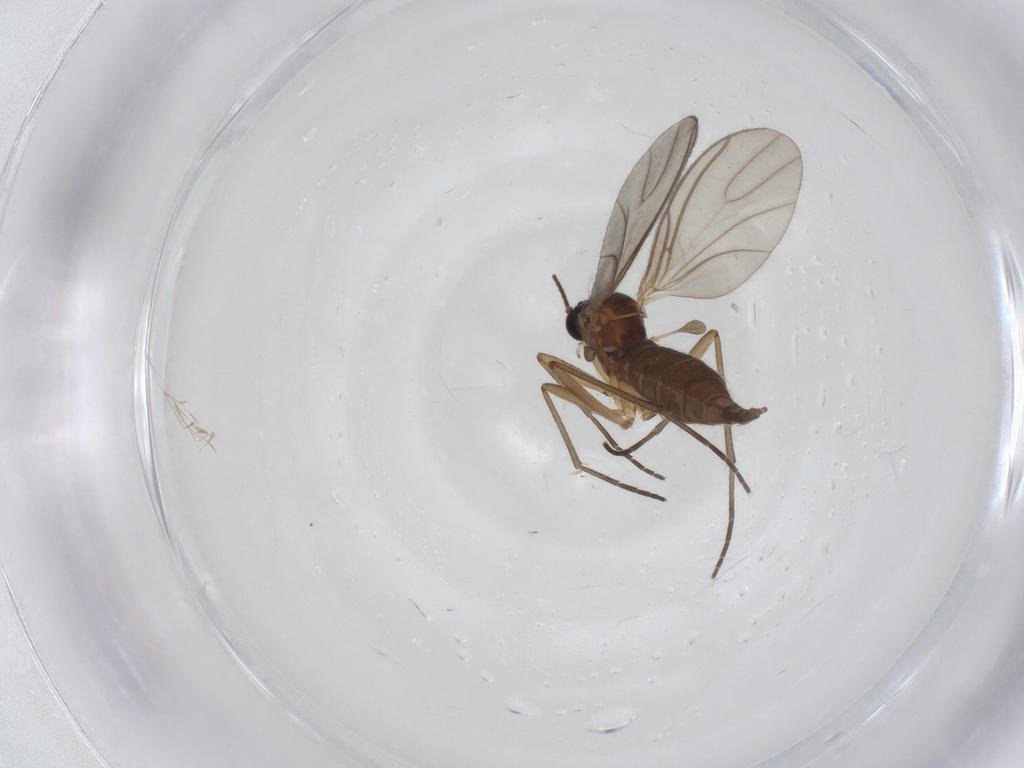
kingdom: Animalia
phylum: Arthropoda
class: Insecta
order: Diptera
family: Sciaridae
